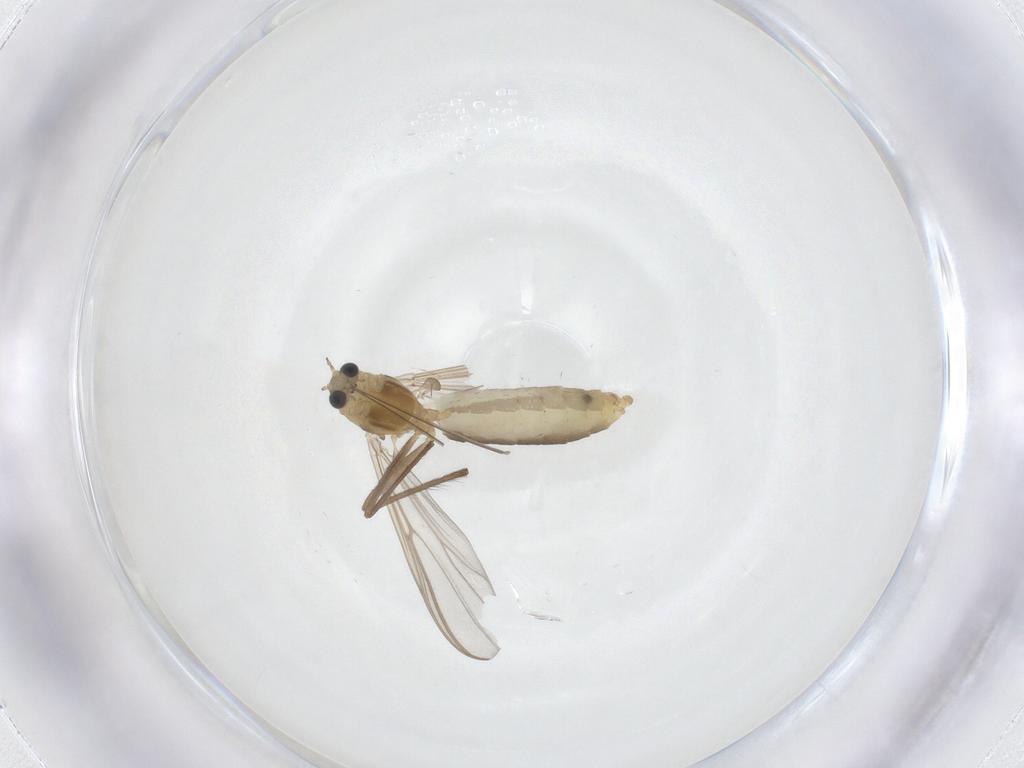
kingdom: Animalia
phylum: Arthropoda
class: Insecta
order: Diptera
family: Chironomidae
